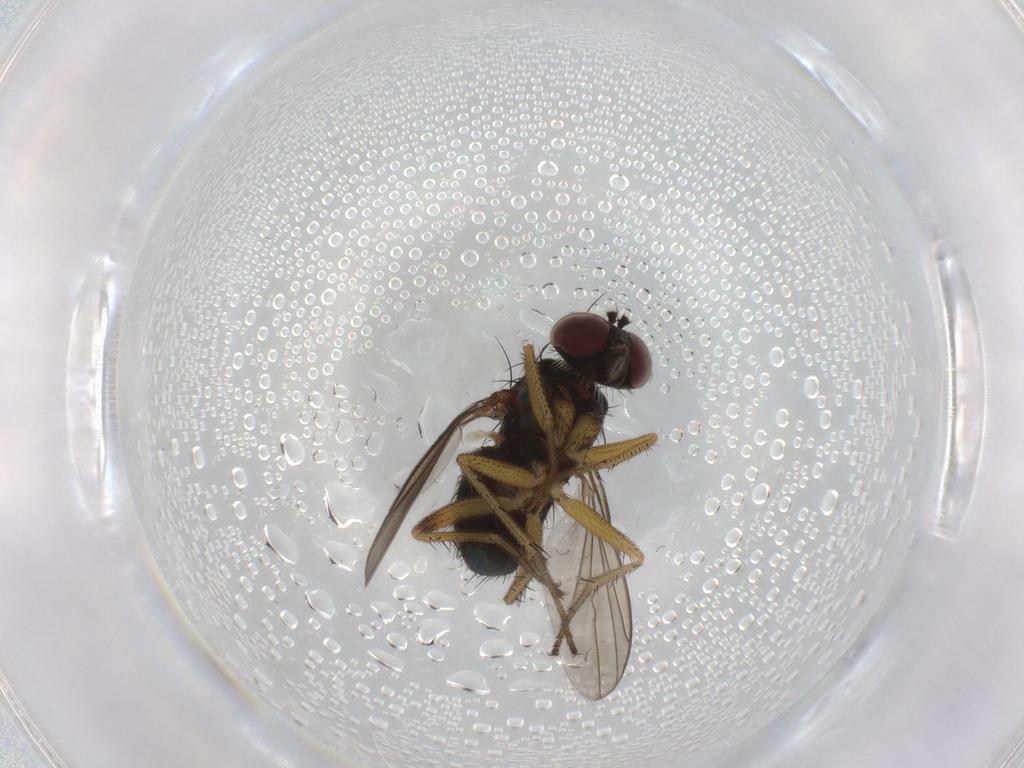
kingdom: Animalia
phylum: Arthropoda
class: Insecta
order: Diptera
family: Dolichopodidae
